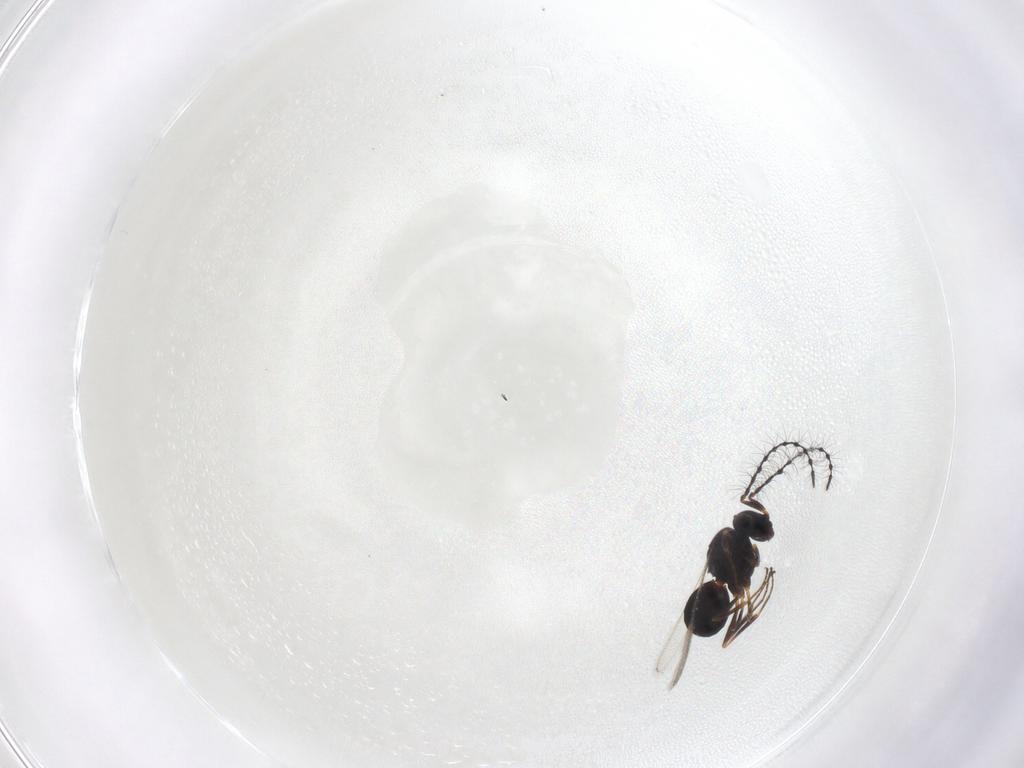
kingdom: Animalia
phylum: Arthropoda
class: Insecta
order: Hymenoptera
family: Scelionidae
